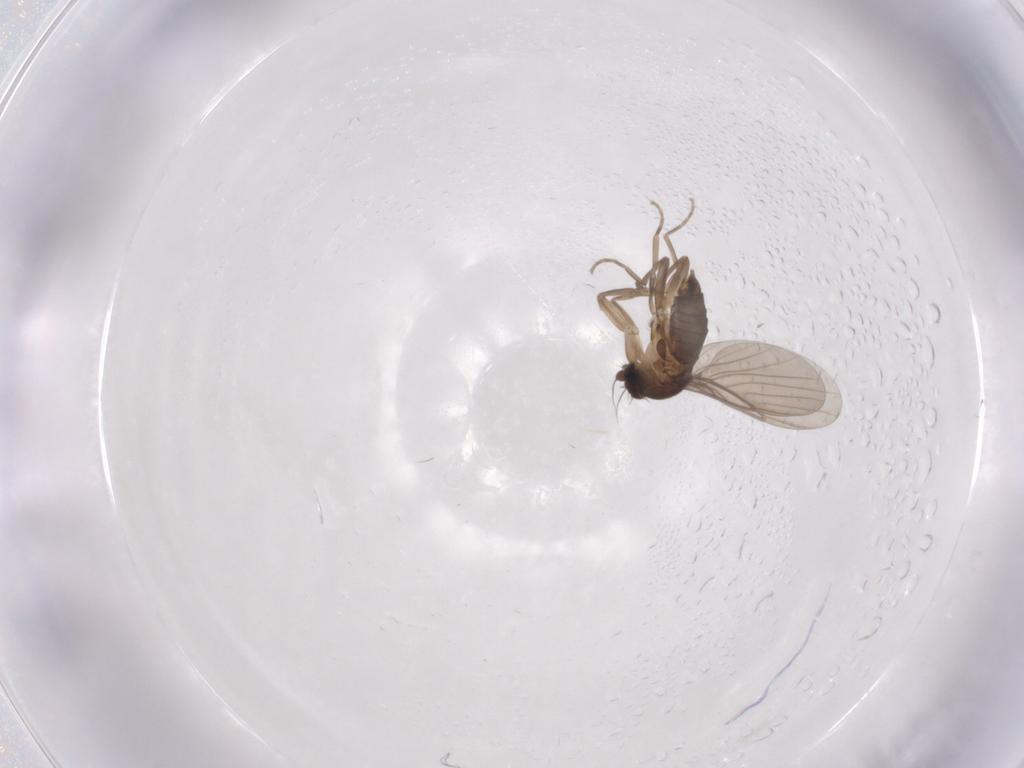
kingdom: Animalia
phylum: Arthropoda
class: Insecta
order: Diptera
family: Phoridae
